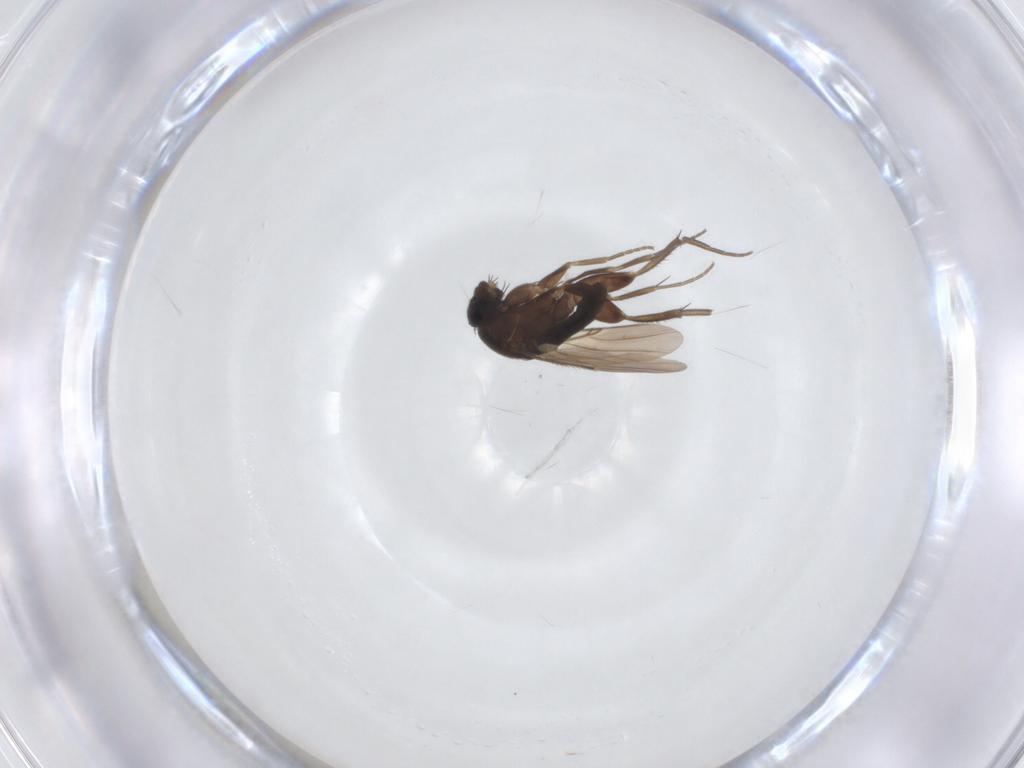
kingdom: Animalia
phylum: Arthropoda
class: Insecta
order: Diptera
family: Phoridae
